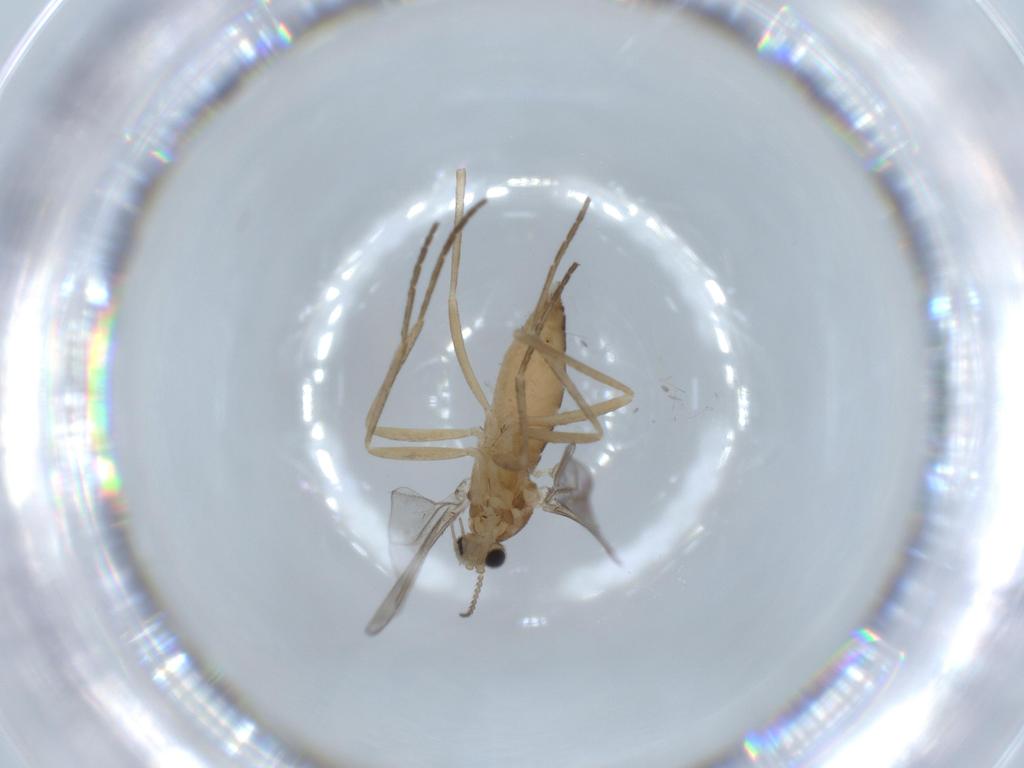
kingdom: Animalia
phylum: Arthropoda
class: Insecta
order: Diptera
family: Cecidomyiidae
